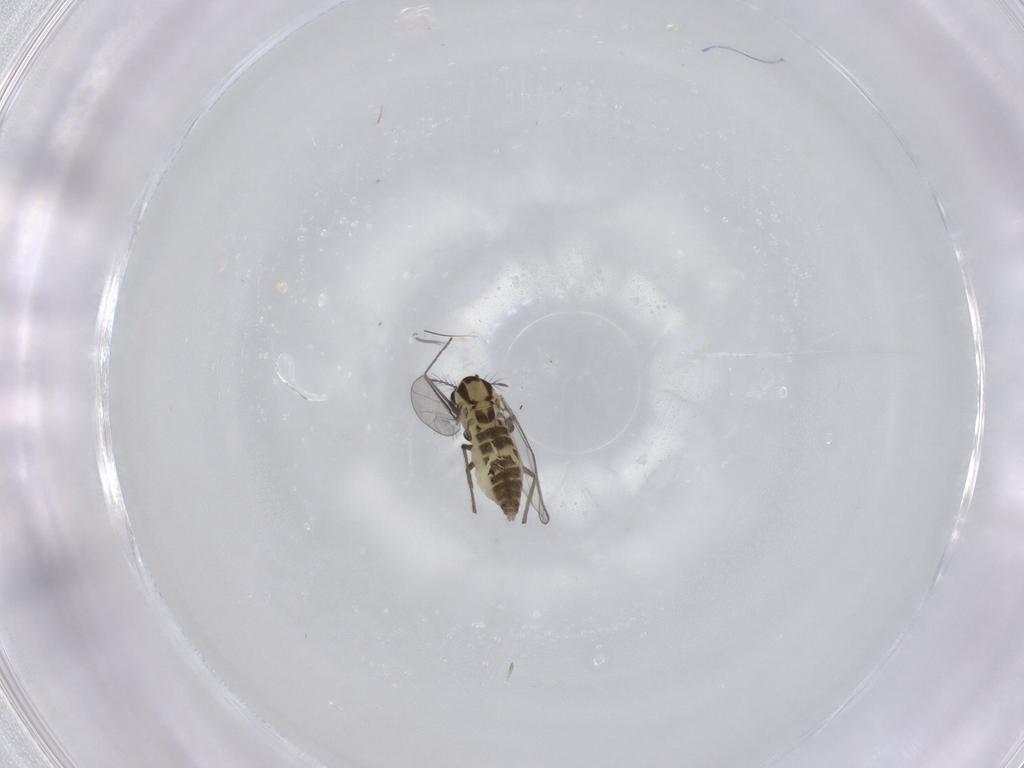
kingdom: Animalia
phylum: Arthropoda
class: Insecta
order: Diptera
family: Chironomidae
